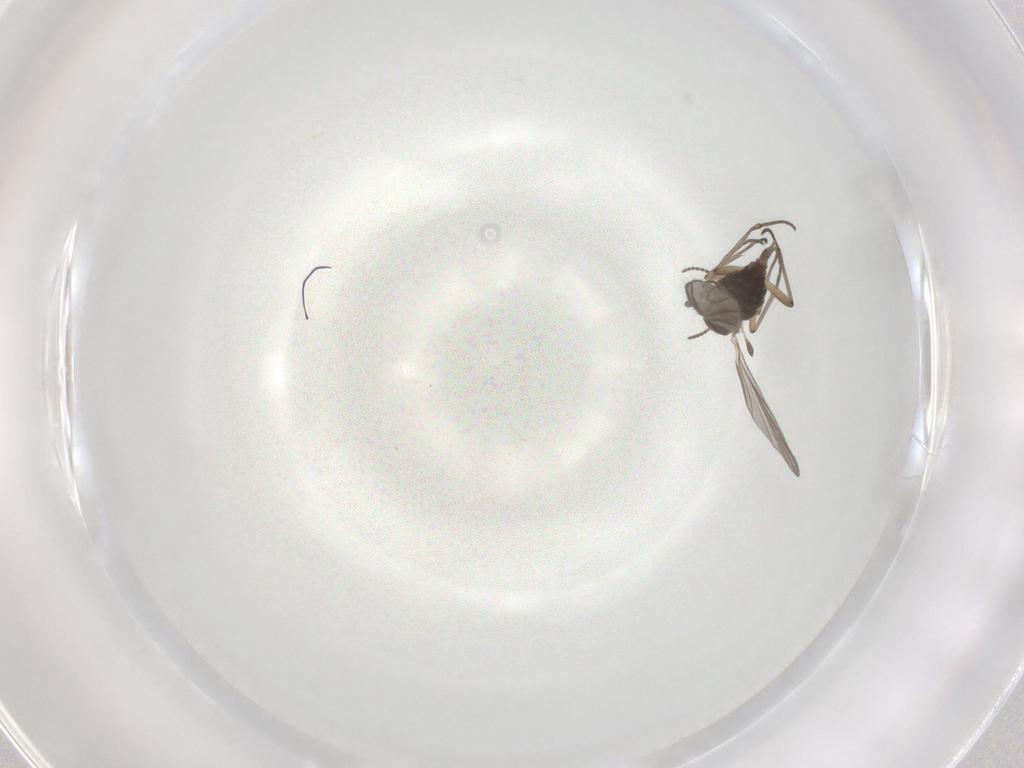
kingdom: Animalia
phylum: Arthropoda
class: Insecta
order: Diptera
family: Sciaridae
